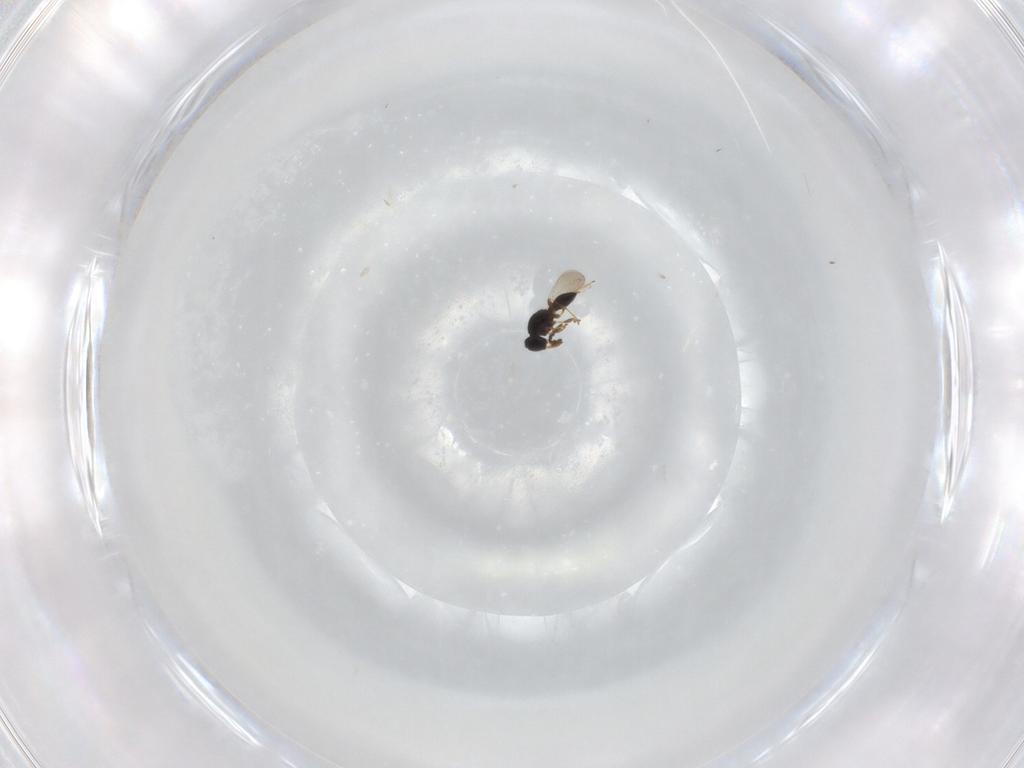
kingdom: Animalia
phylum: Arthropoda
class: Insecta
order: Hymenoptera
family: Platygastridae
